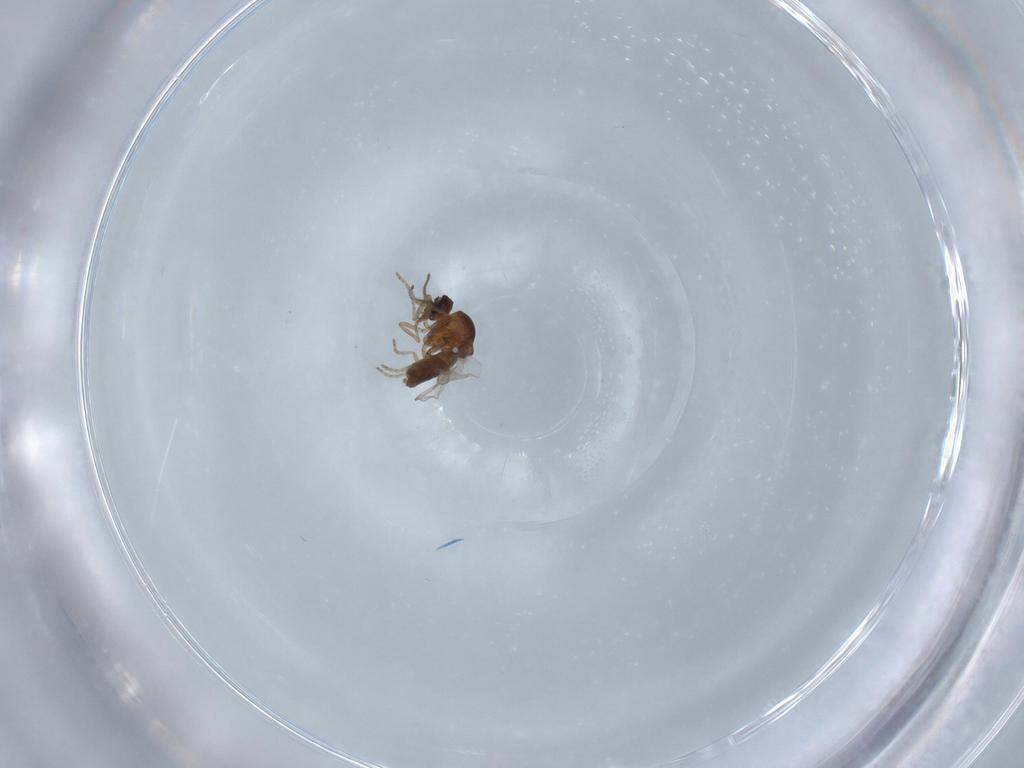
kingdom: Animalia
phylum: Arthropoda
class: Insecta
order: Diptera
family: Ceratopogonidae
